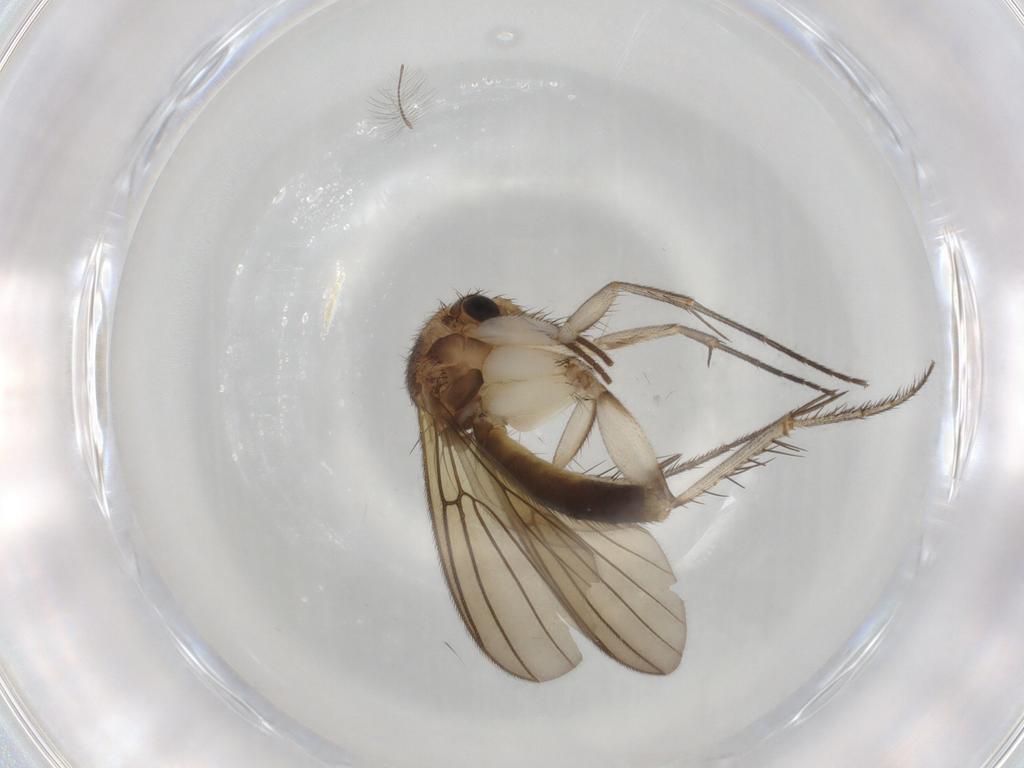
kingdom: Animalia
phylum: Arthropoda
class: Insecta
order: Diptera
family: Mycetophilidae
